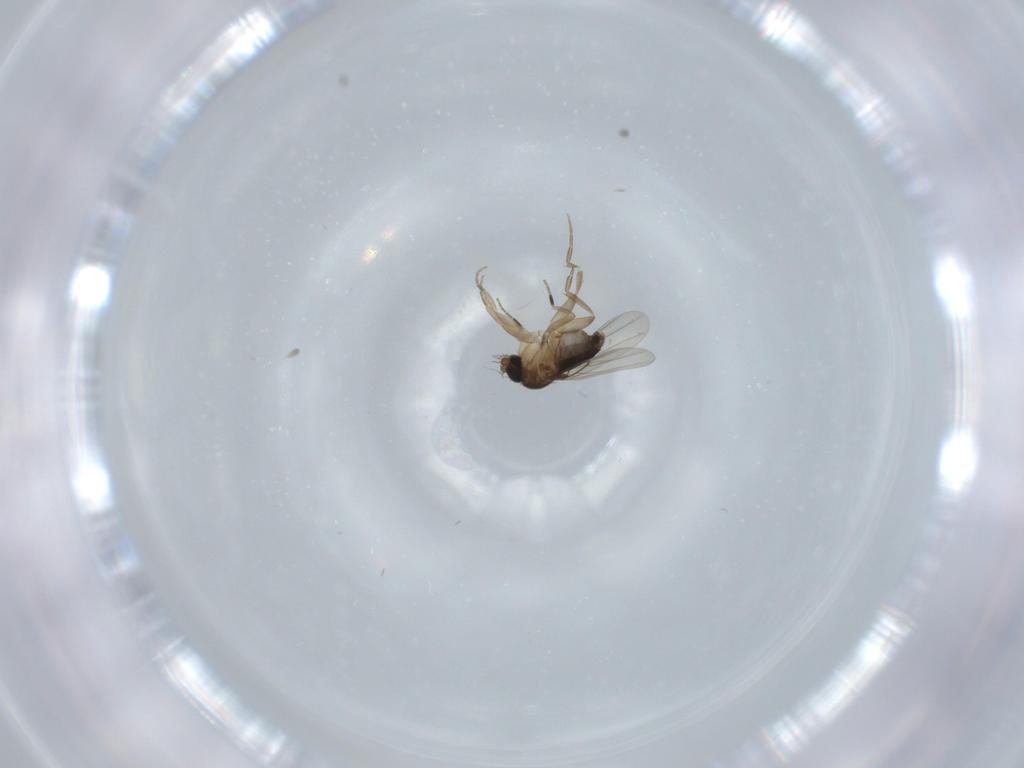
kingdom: Animalia
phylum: Arthropoda
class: Insecta
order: Diptera
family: Phoridae
